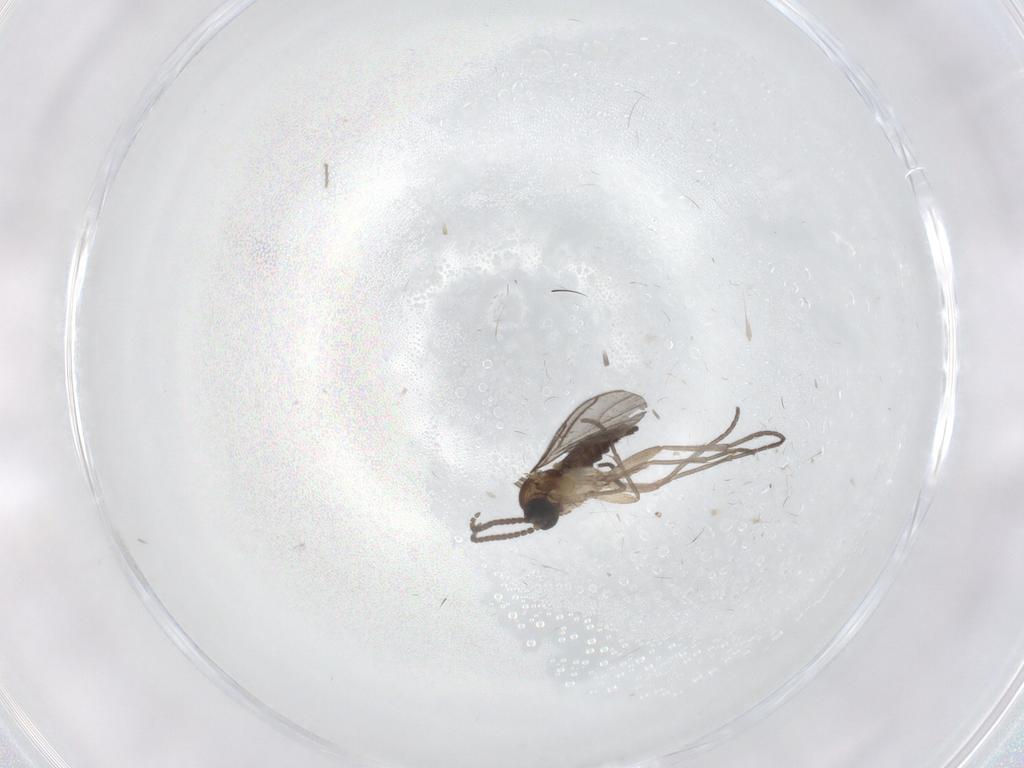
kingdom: Animalia
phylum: Arthropoda
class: Insecta
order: Diptera
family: Sciaridae
